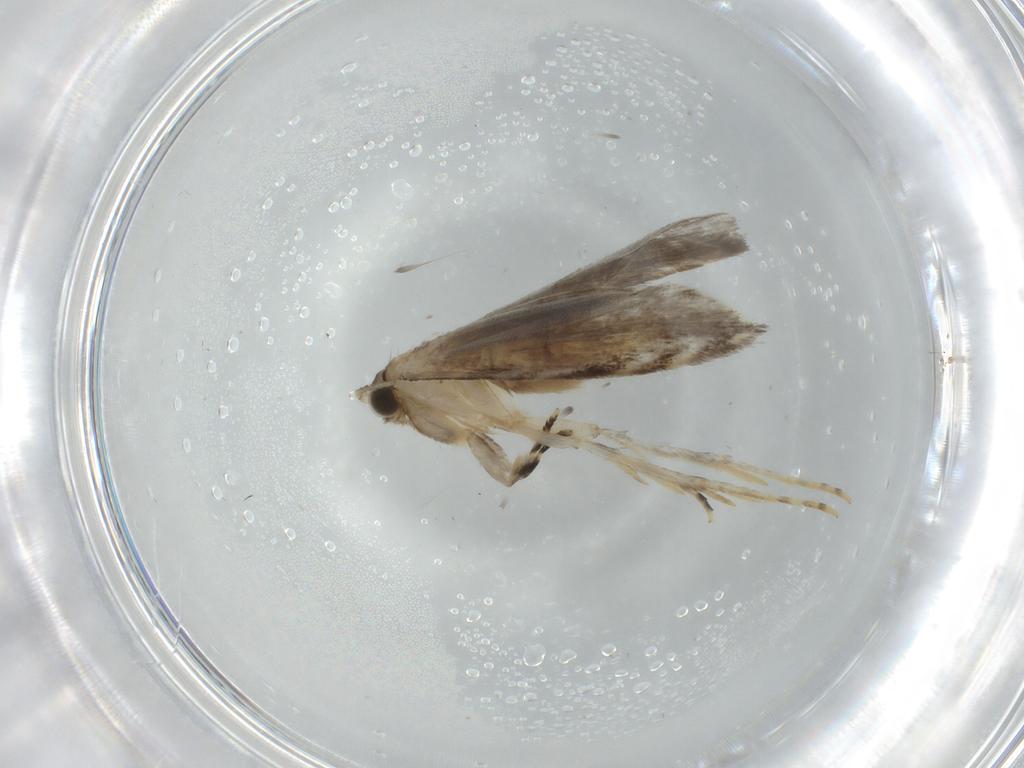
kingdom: Animalia
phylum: Arthropoda
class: Insecta
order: Lepidoptera
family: Tineidae
